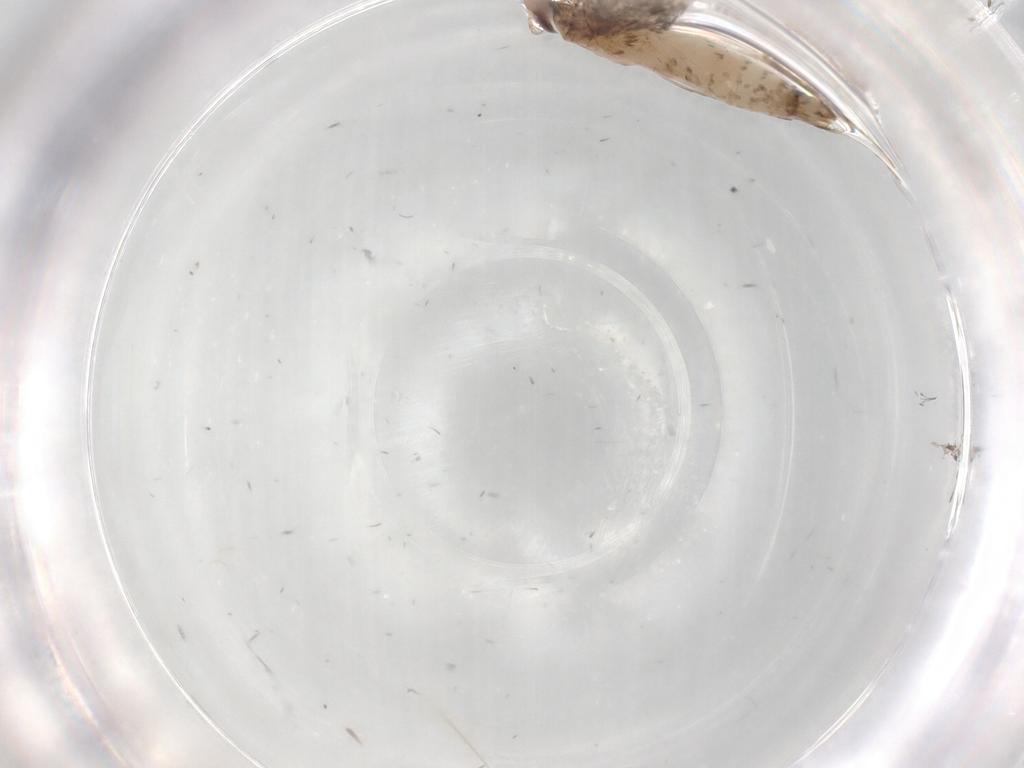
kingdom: Animalia
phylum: Arthropoda
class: Insecta
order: Lepidoptera
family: Gelechiidae
